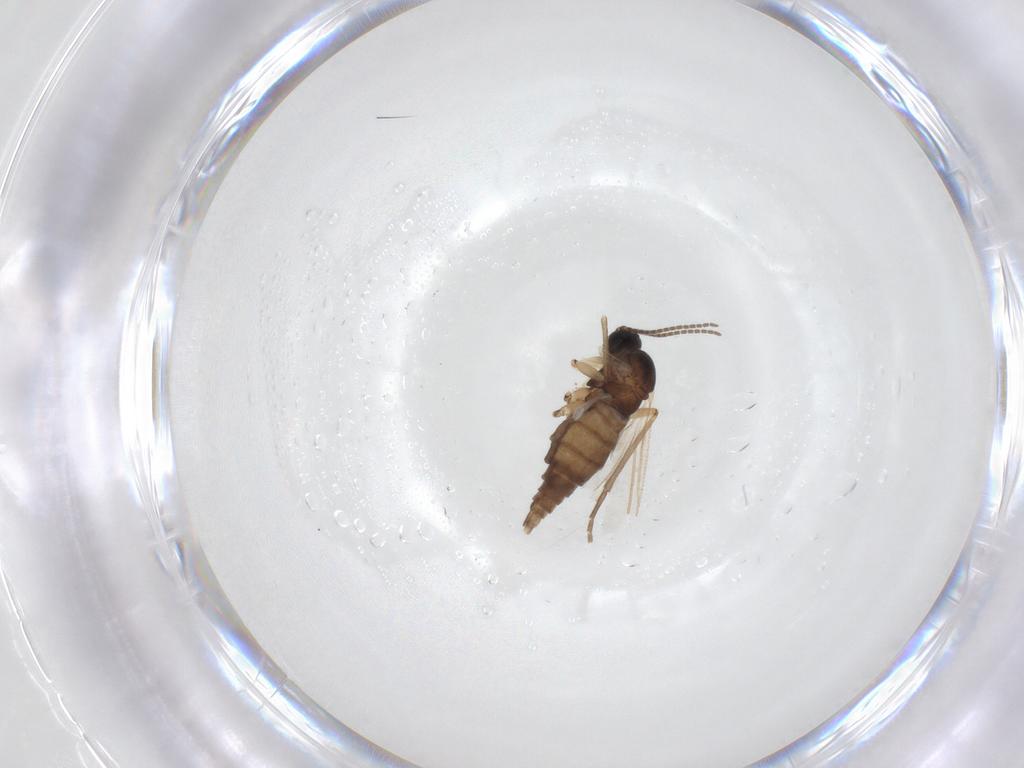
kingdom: Animalia
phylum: Arthropoda
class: Insecta
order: Diptera
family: Sciaridae
